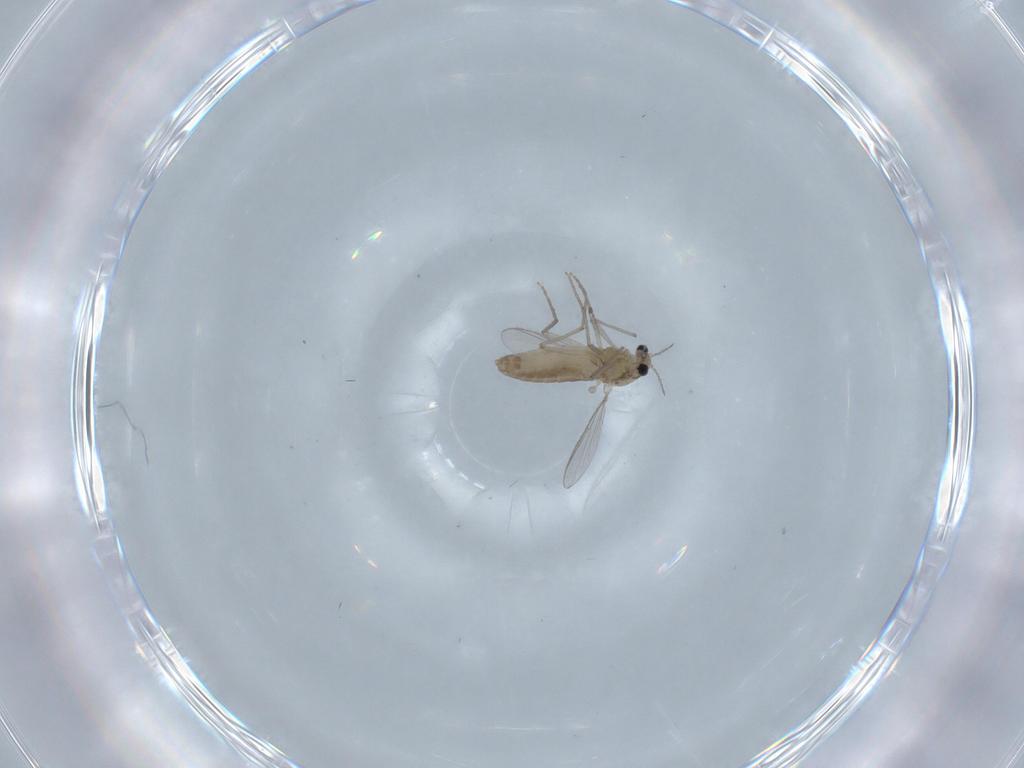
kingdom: Animalia
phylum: Arthropoda
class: Insecta
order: Diptera
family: Chironomidae
